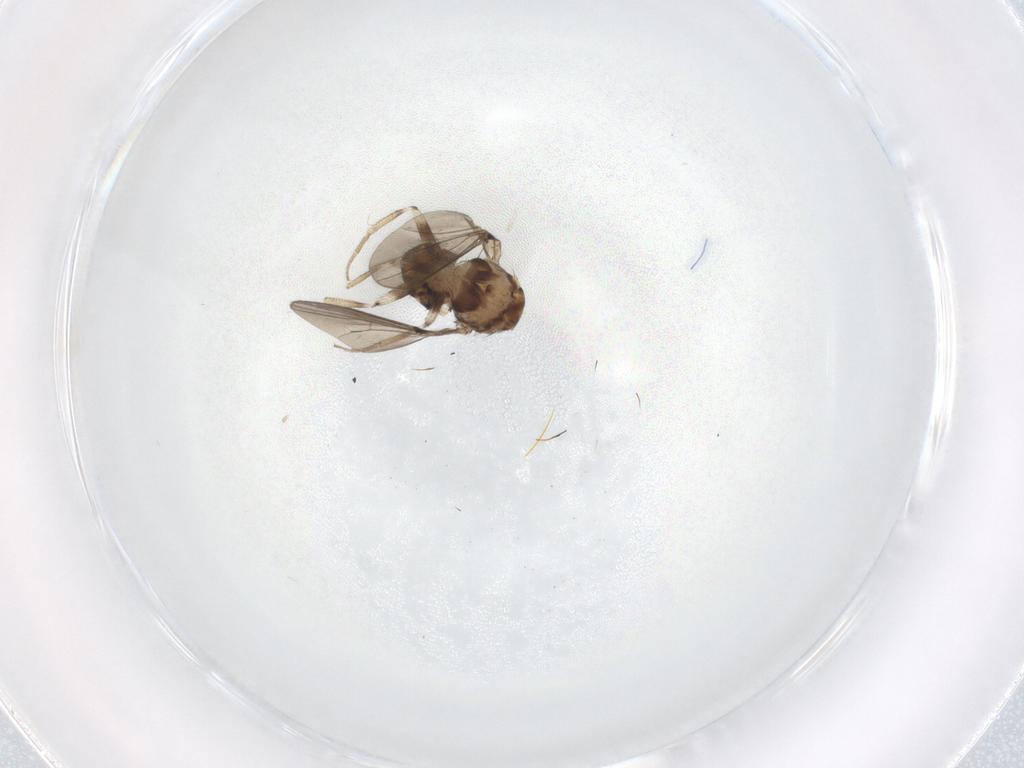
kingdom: Animalia
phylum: Arthropoda
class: Insecta
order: Diptera
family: Drosophilidae
